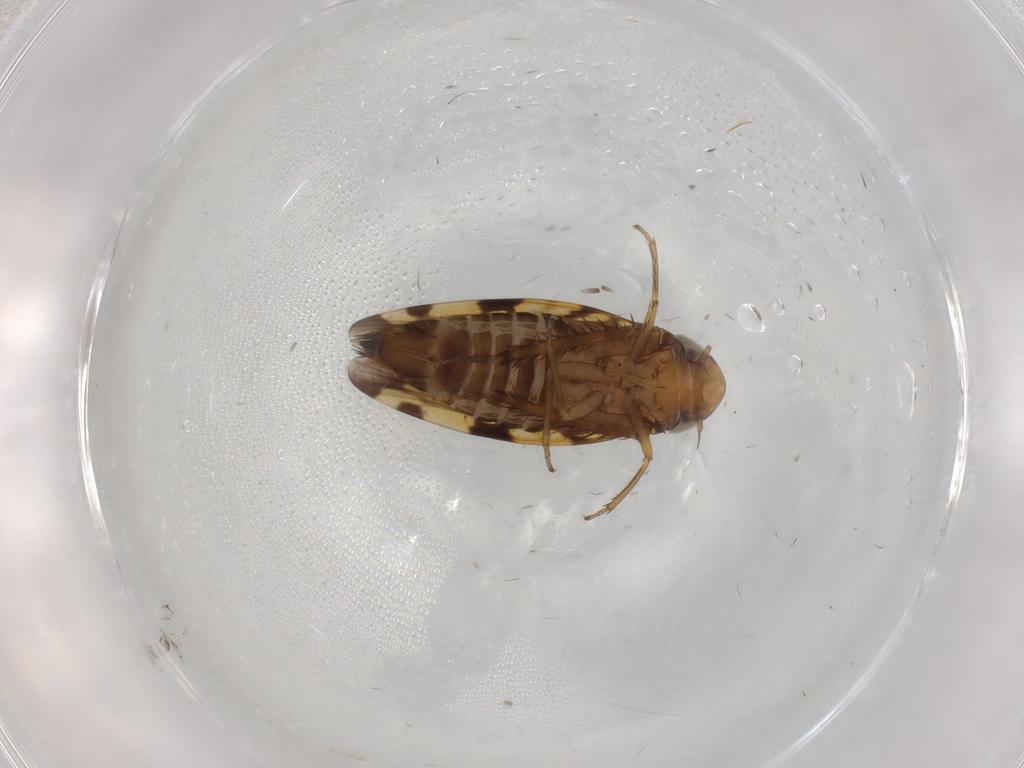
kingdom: Animalia
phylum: Arthropoda
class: Insecta
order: Hemiptera
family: Cicadellidae
